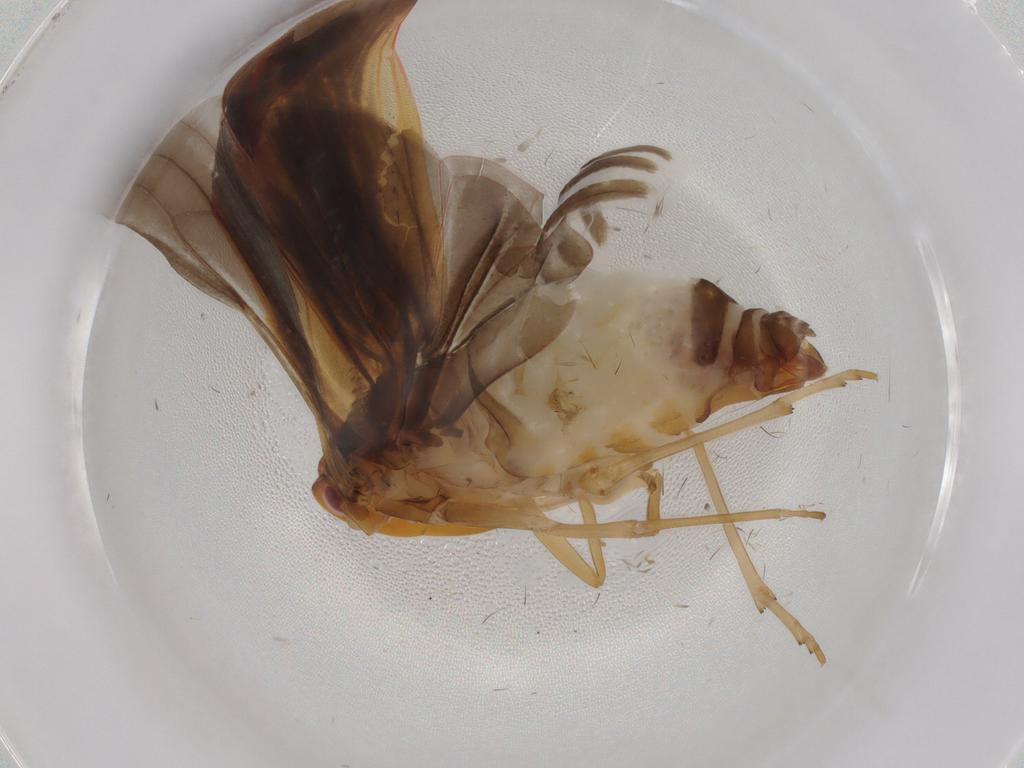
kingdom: Animalia
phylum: Arthropoda
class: Insecta
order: Hemiptera
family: Derbidae
